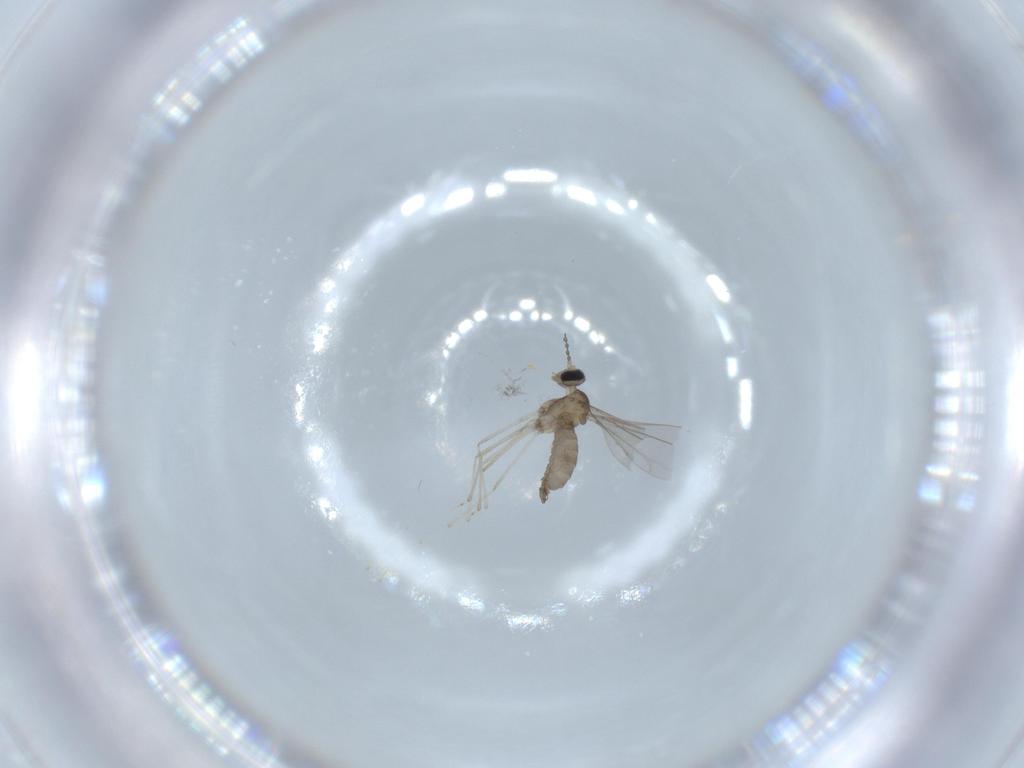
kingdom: Animalia
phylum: Arthropoda
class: Insecta
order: Diptera
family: Cecidomyiidae
